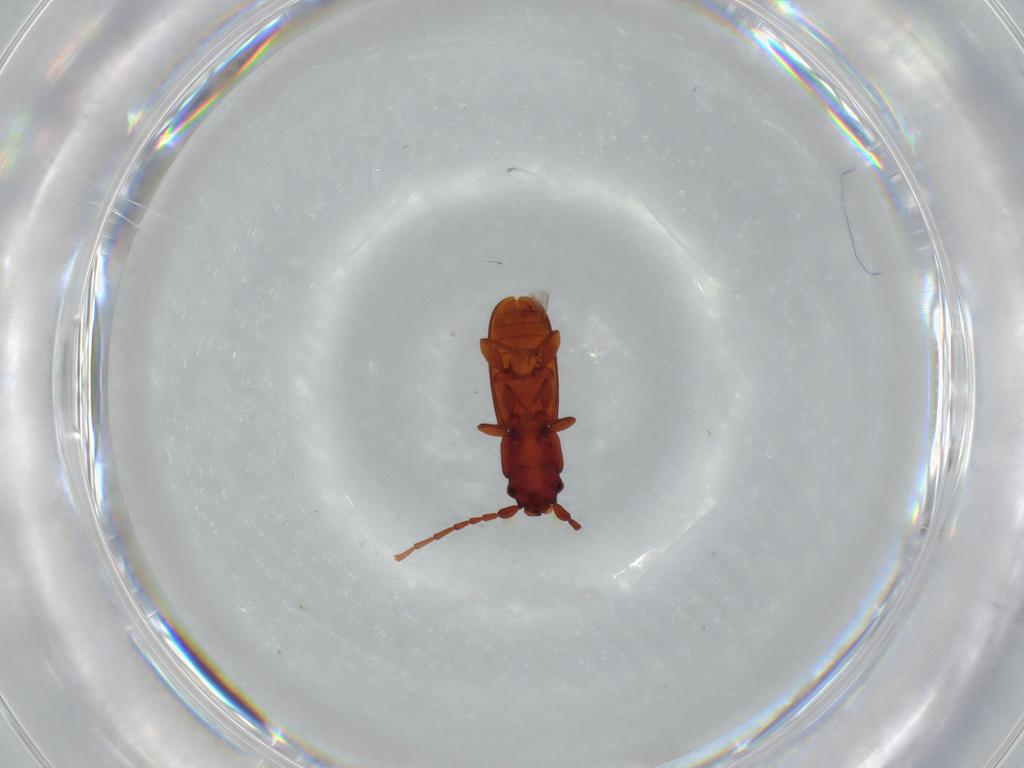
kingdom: Animalia
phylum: Arthropoda
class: Insecta
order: Coleoptera
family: Laemophloeidae
